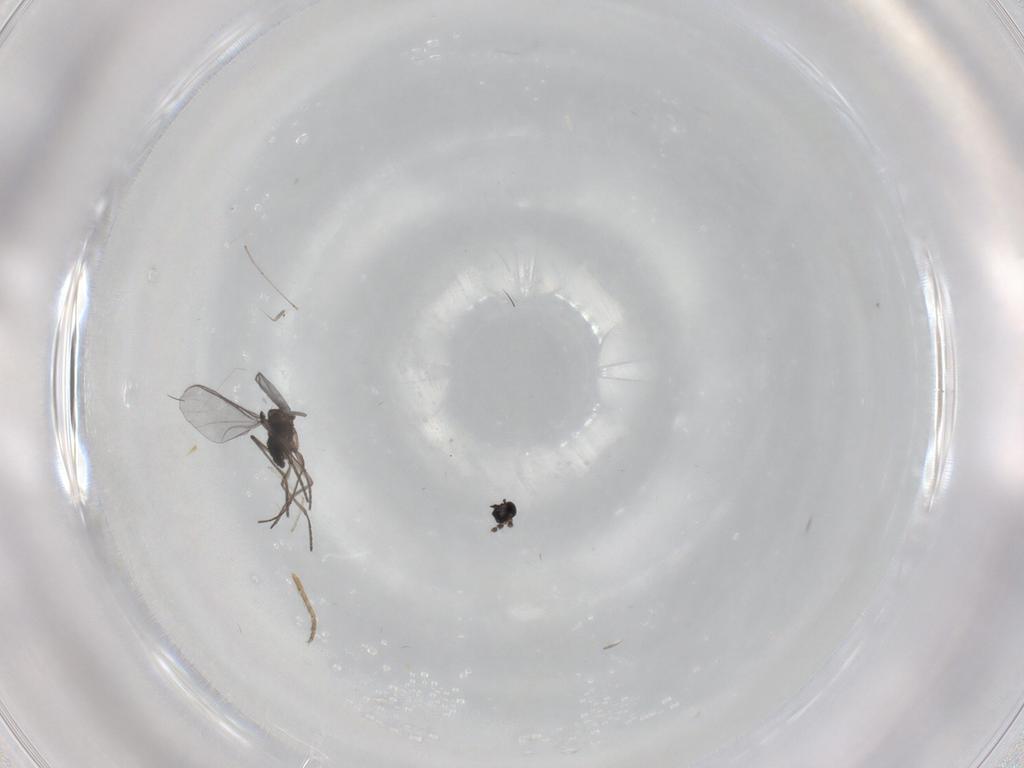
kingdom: Animalia
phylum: Arthropoda
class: Insecta
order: Diptera
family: Ceratopogonidae
